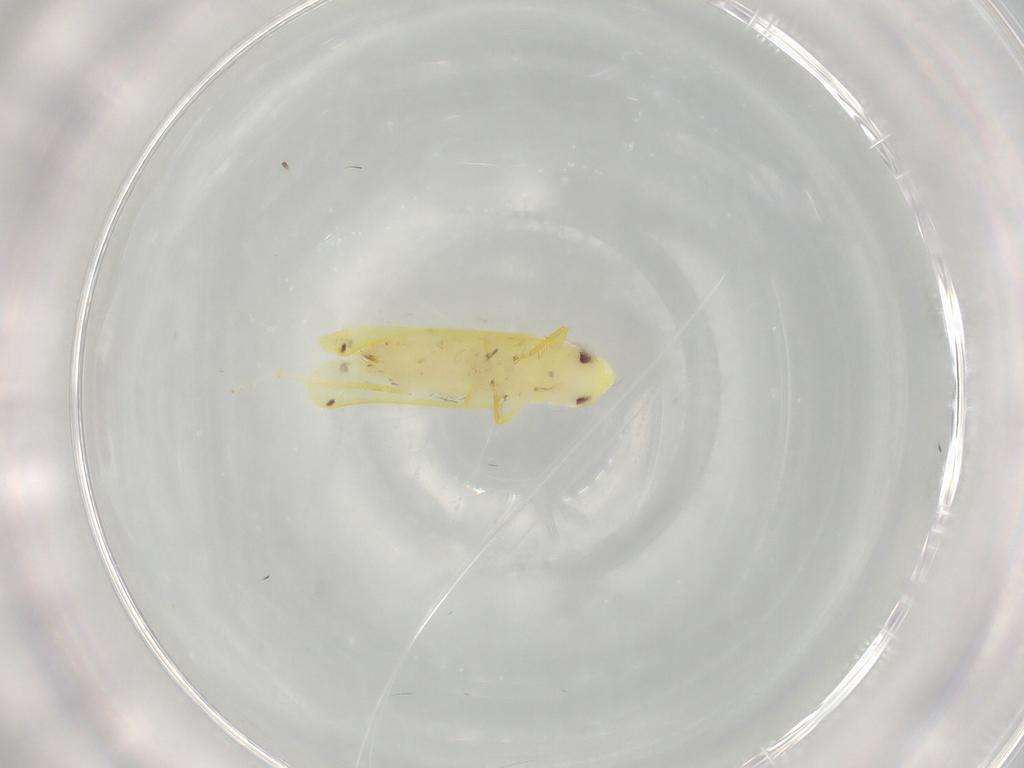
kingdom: Animalia
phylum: Arthropoda
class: Insecta
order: Hemiptera
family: Cicadellidae
